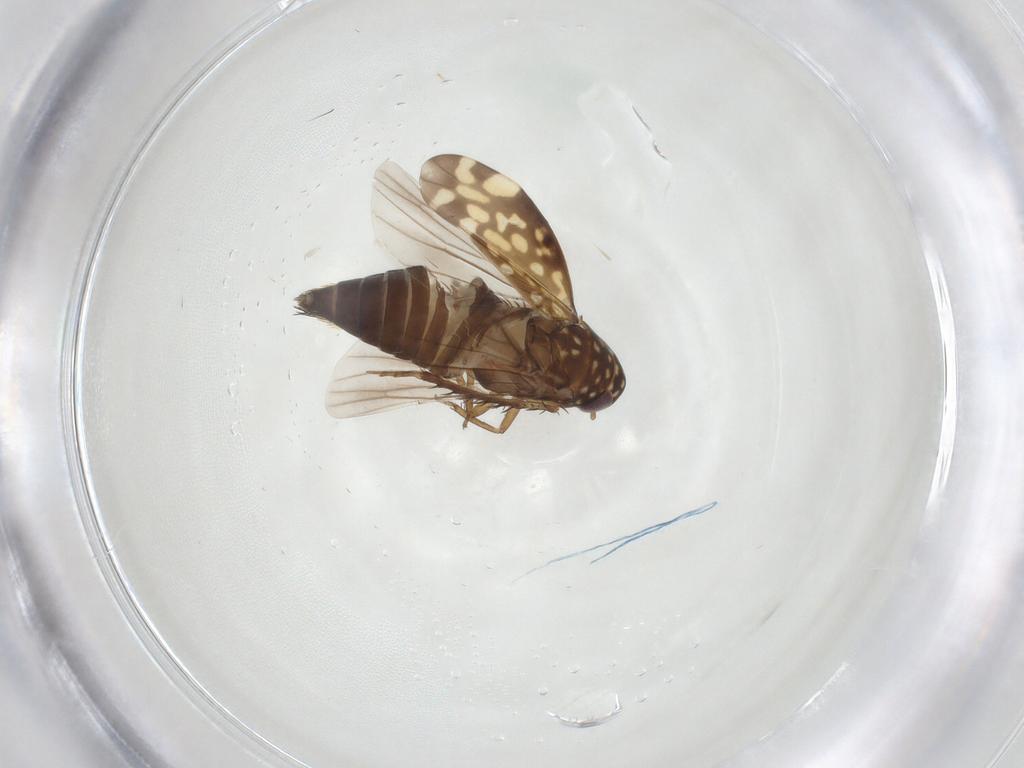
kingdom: Animalia
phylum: Arthropoda
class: Insecta
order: Hemiptera
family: Cicadellidae
